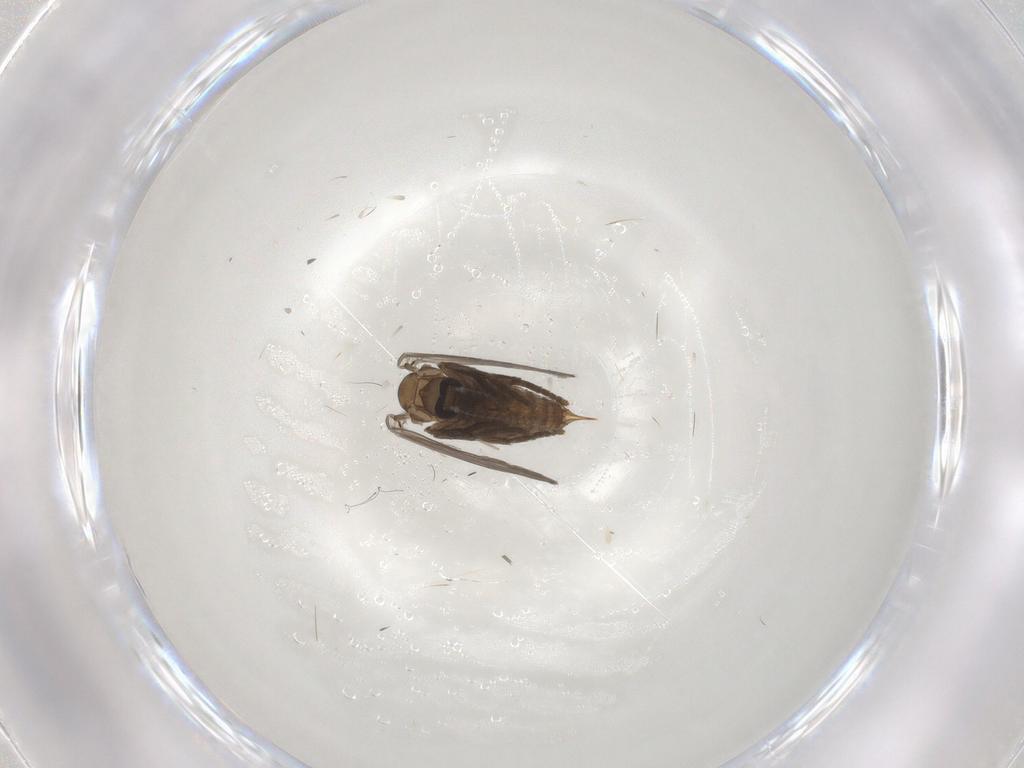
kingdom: Animalia
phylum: Arthropoda
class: Insecta
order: Diptera
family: Psychodidae
